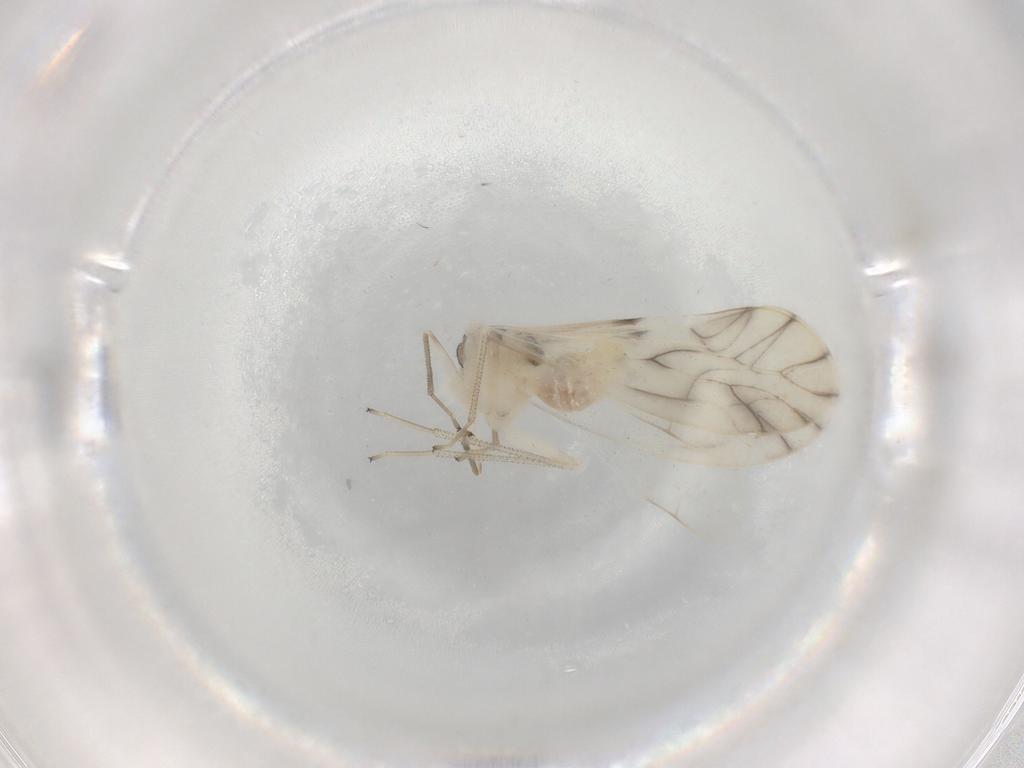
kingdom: Animalia
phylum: Arthropoda
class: Insecta
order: Psocodea
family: Caeciliusidae
